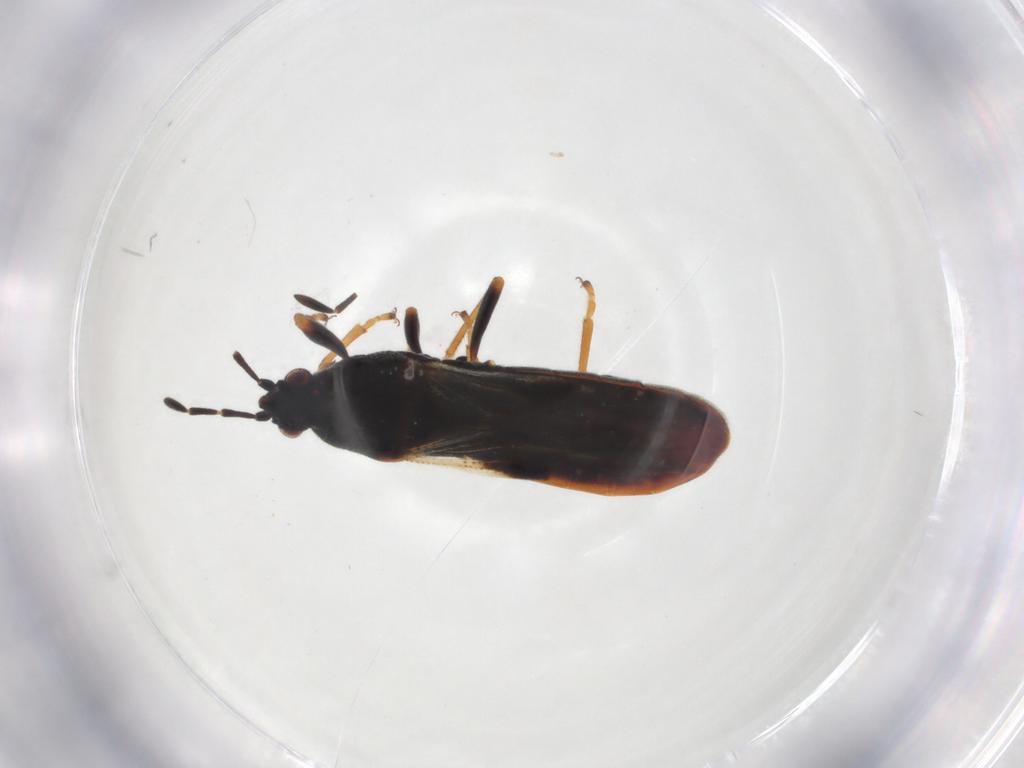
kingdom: Animalia
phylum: Arthropoda
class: Insecta
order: Hemiptera
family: Blissidae
